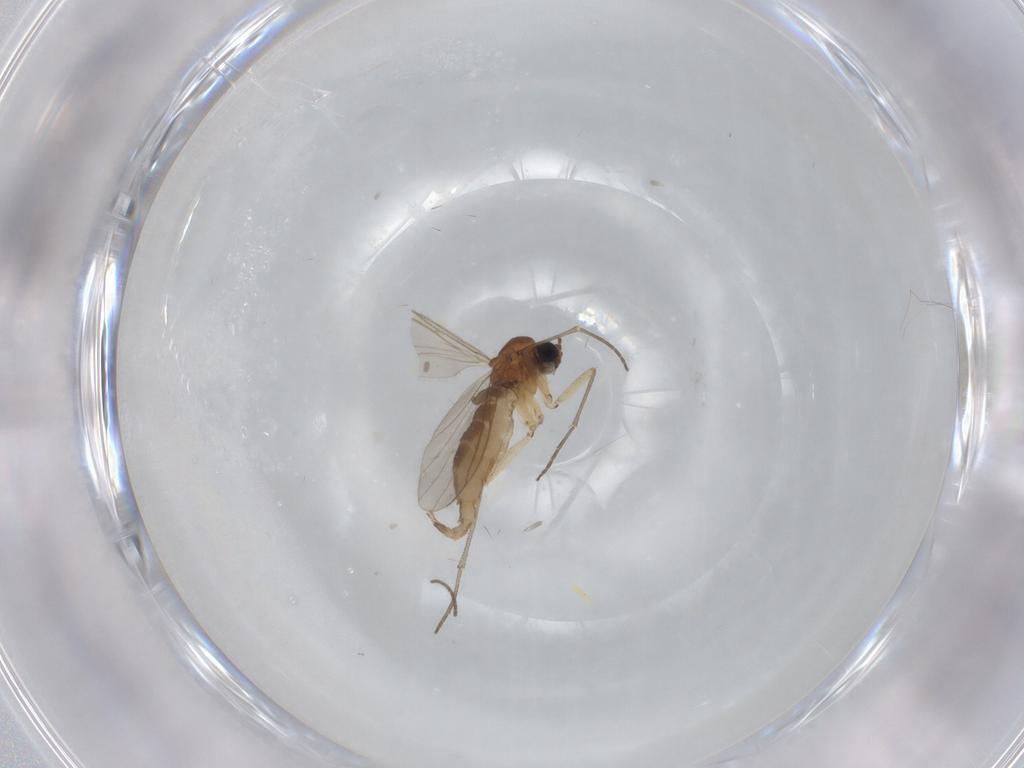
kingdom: Animalia
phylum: Arthropoda
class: Insecta
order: Diptera
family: Sciaridae
